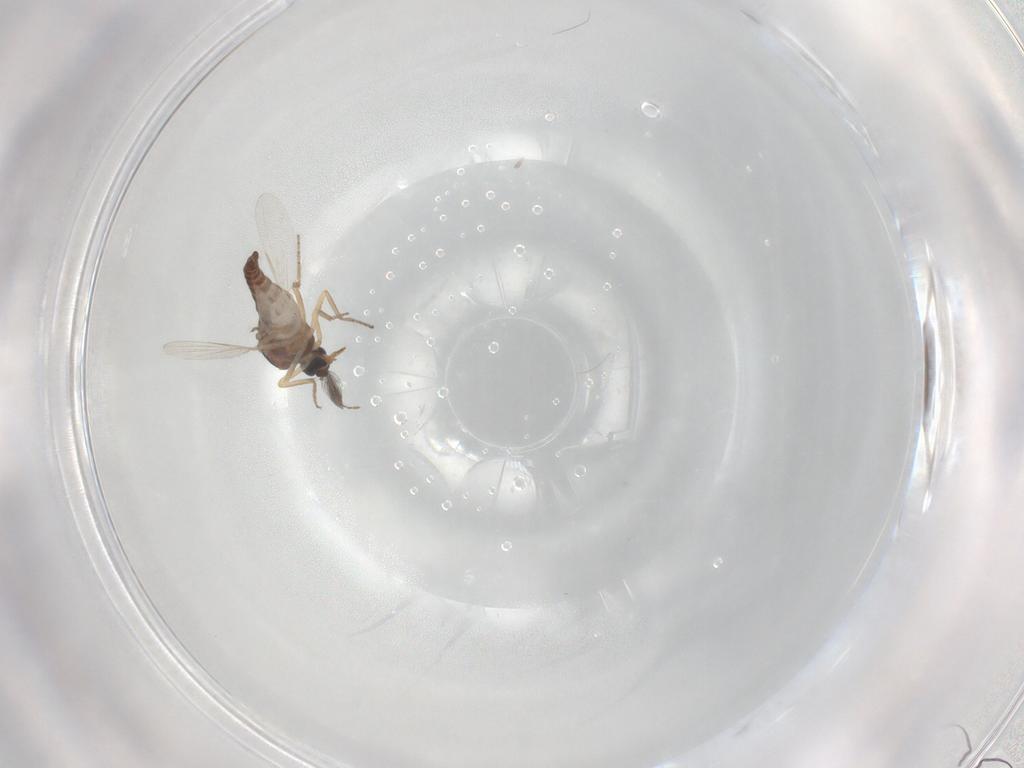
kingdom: Animalia
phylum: Arthropoda
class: Insecta
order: Diptera
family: Ceratopogonidae
